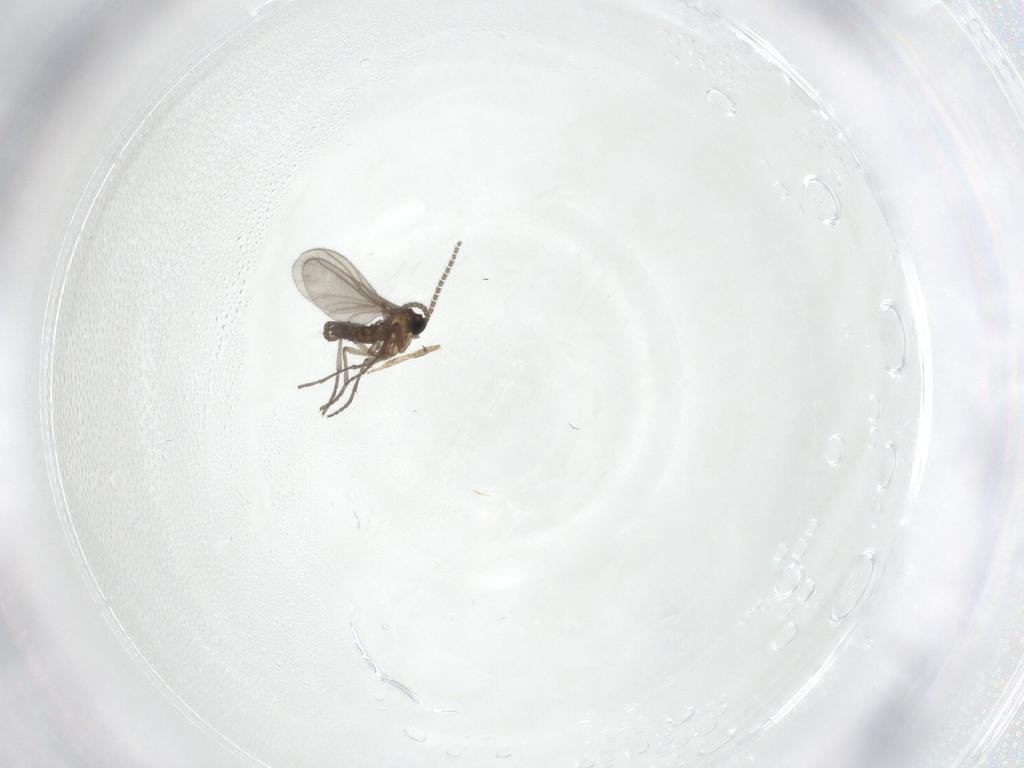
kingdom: Animalia
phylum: Arthropoda
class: Insecta
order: Diptera
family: Sciaridae
